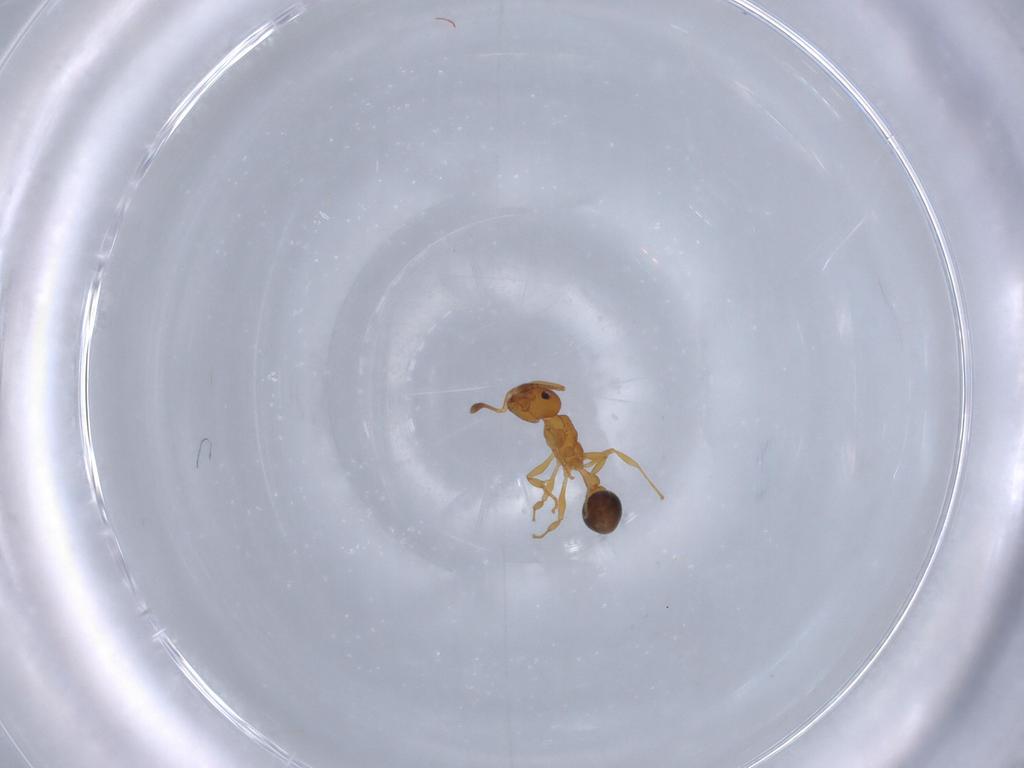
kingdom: Animalia
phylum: Arthropoda
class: Insecta
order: Hymenoptera
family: Formicidae
